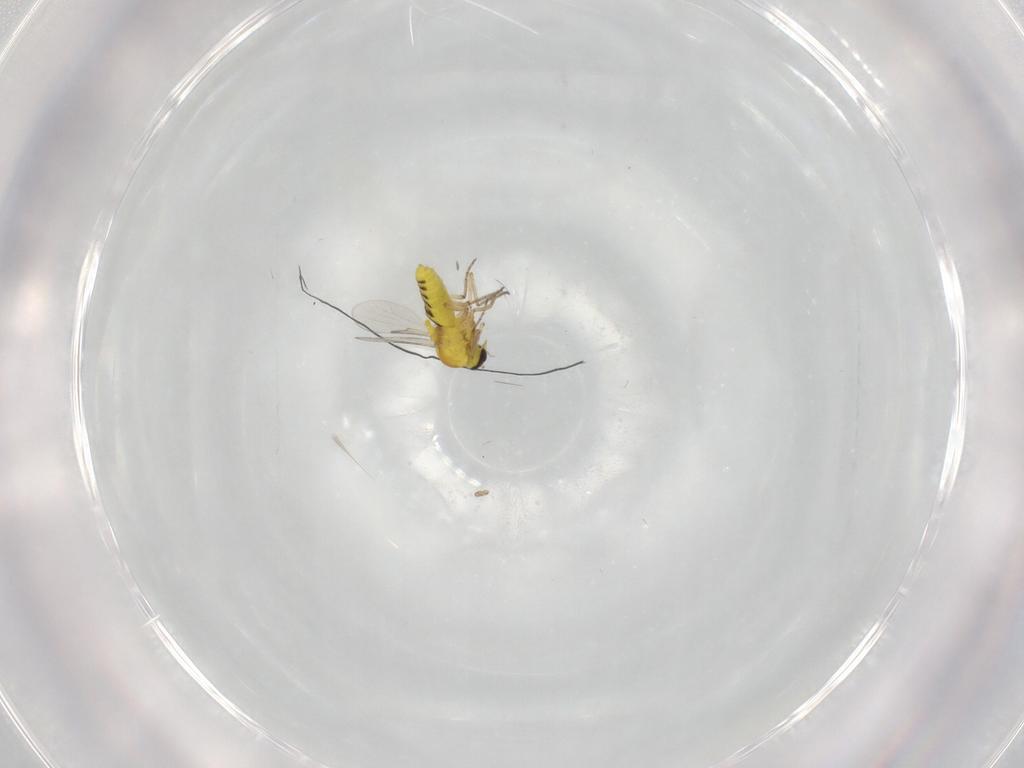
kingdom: Animalia
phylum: Arthropoda
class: Insecta
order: Diptera
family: Ceratopogonidae
